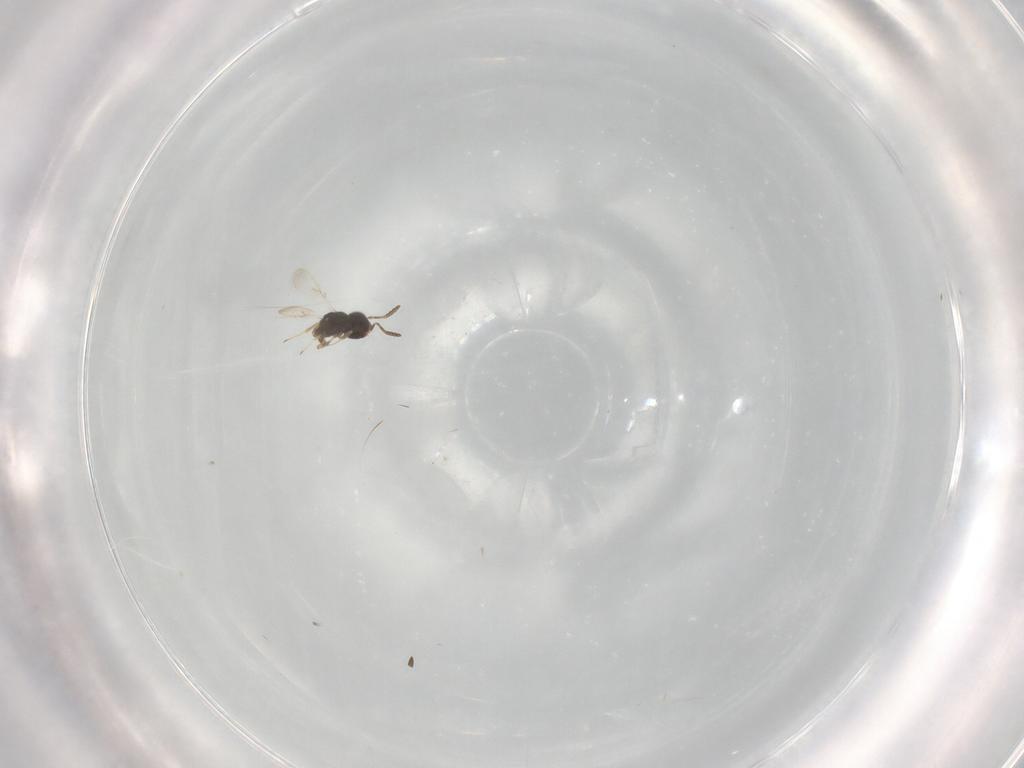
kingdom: Animalia
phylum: Arthropoda
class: Insecta
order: Hymenoptera
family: Scelionidae
